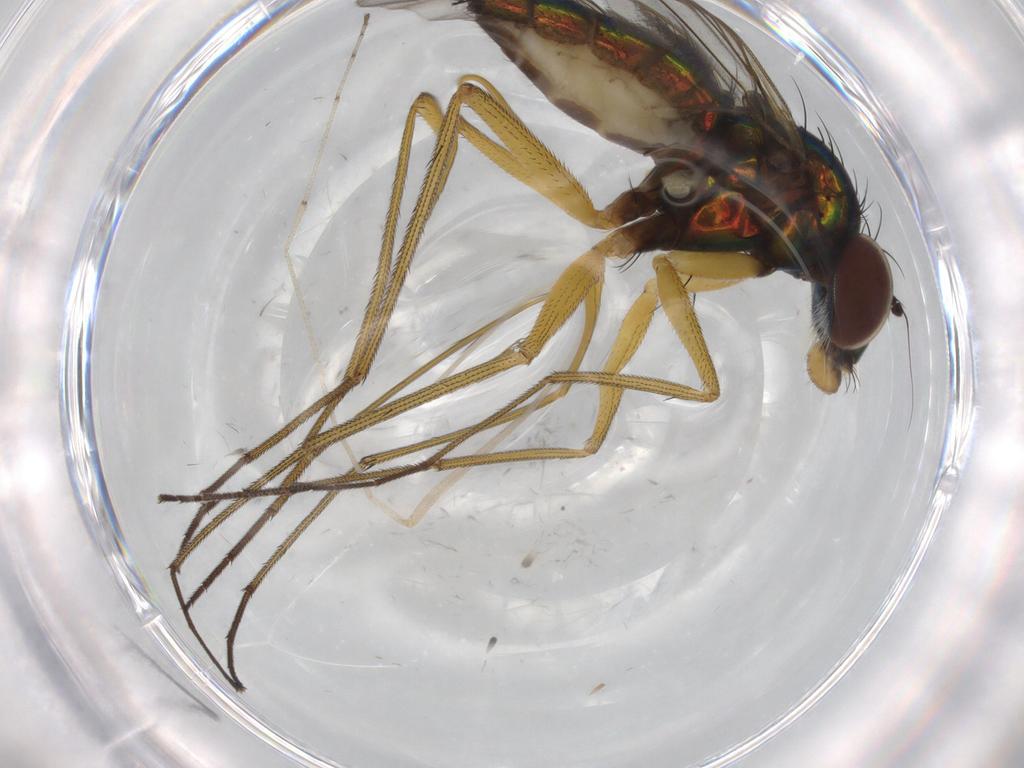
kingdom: Animalia
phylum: Arthropoda
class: Insecta
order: Diptera
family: Dolichopodidae
